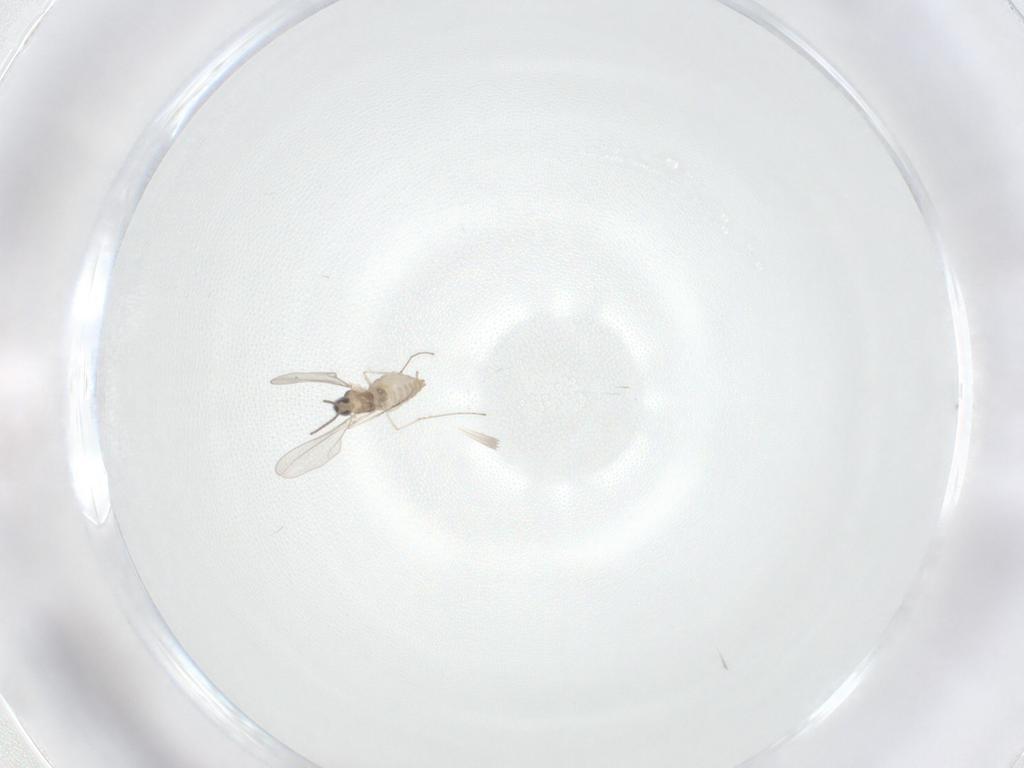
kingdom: Animalia
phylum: Arthropoda
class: Insecta
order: Diptera
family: Cecidomyiidae
